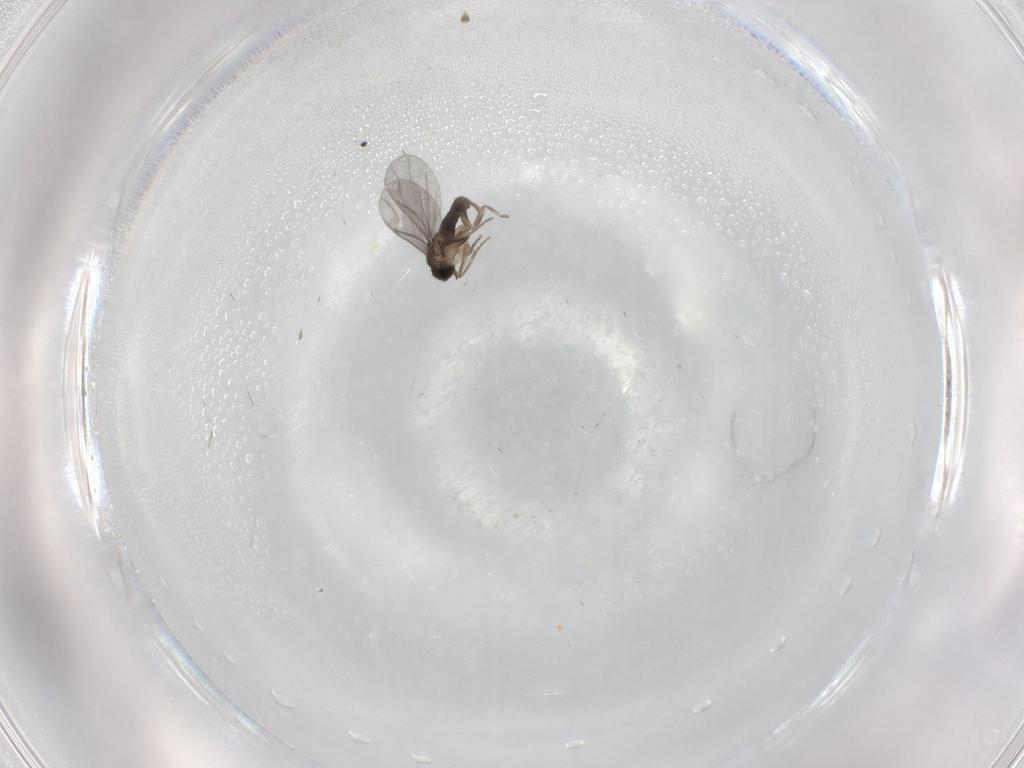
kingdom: Animalia
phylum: Arthropoda
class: Insecta
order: Diptera
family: Phoridae
